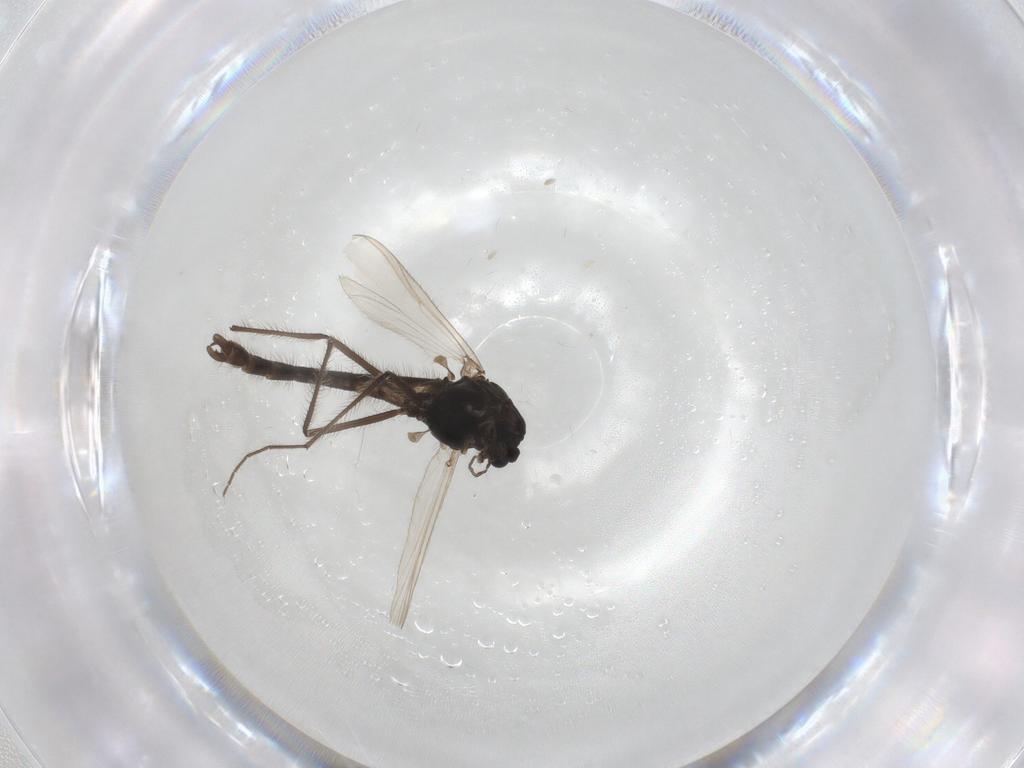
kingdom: Animalia
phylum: Arthropoda
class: Insecta
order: Diptera
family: Chironomidae
